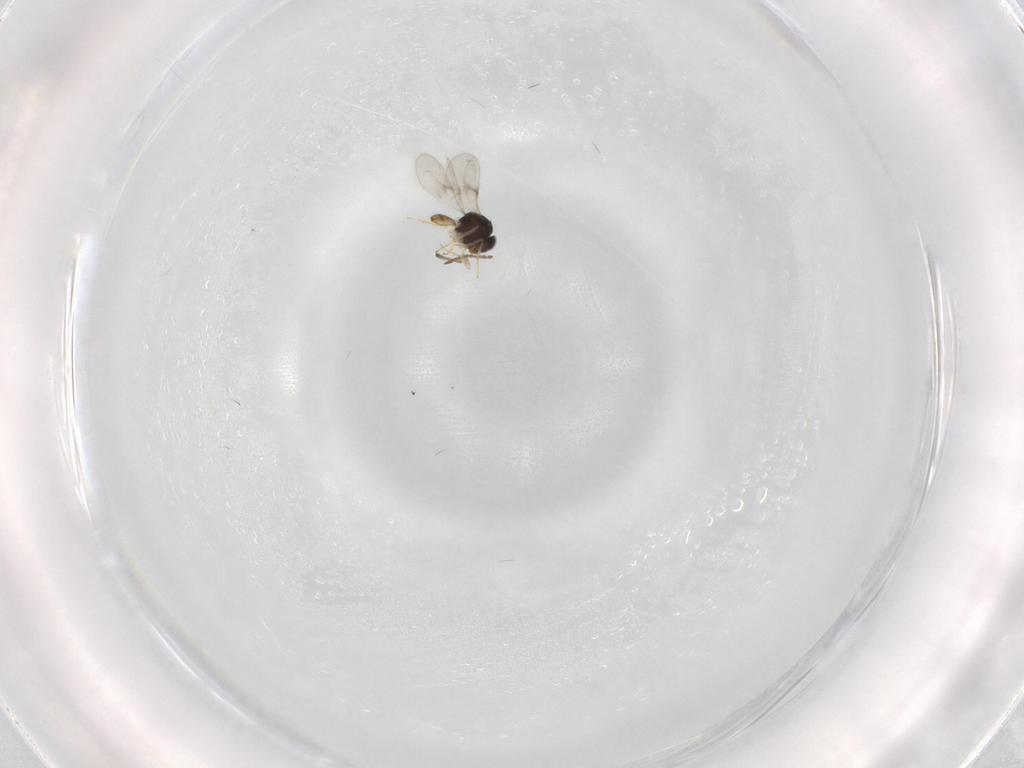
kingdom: Animalia
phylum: Arthropoda
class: Insecta
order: Hymenoptera
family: Scelionidae
